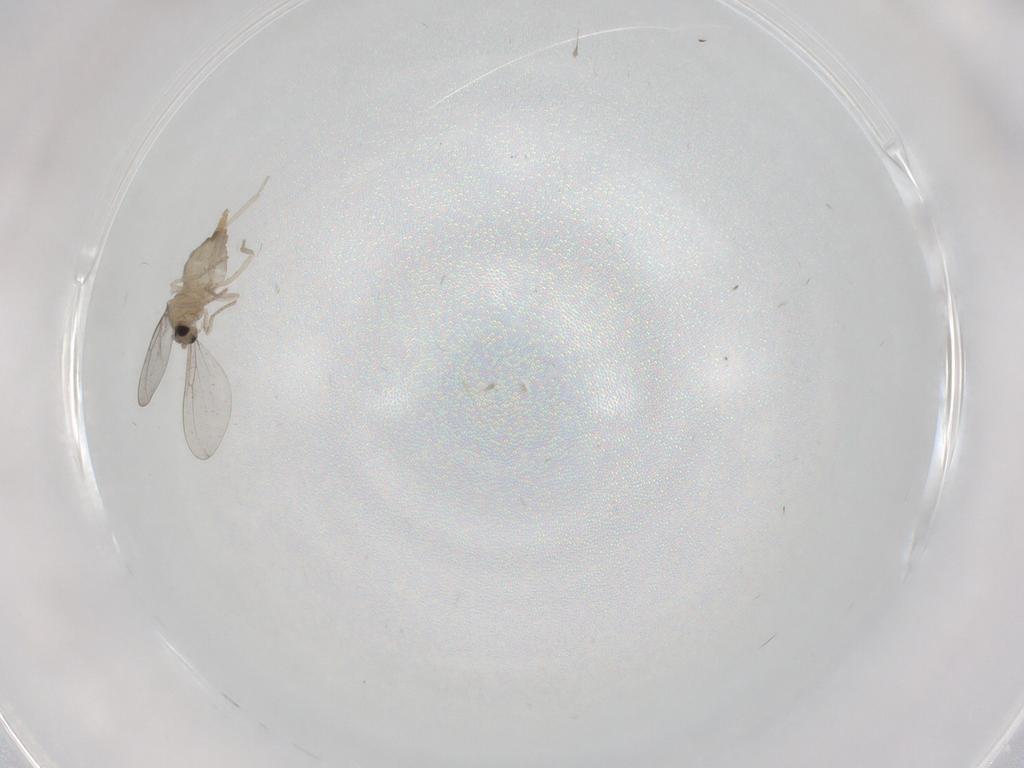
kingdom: Animalia
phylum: Arthropoda
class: Insecta
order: Diptera
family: Cecidomyiidae
